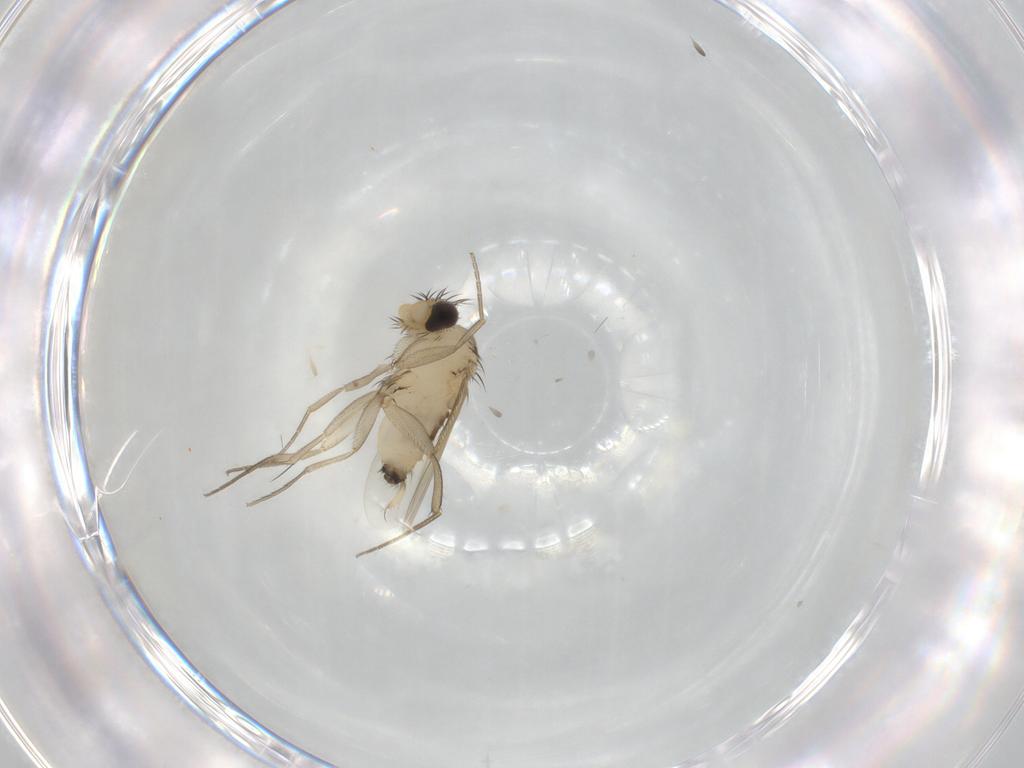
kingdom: Animalia
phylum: Arthropoda
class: Insecta
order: Diptera
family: Phoridae
